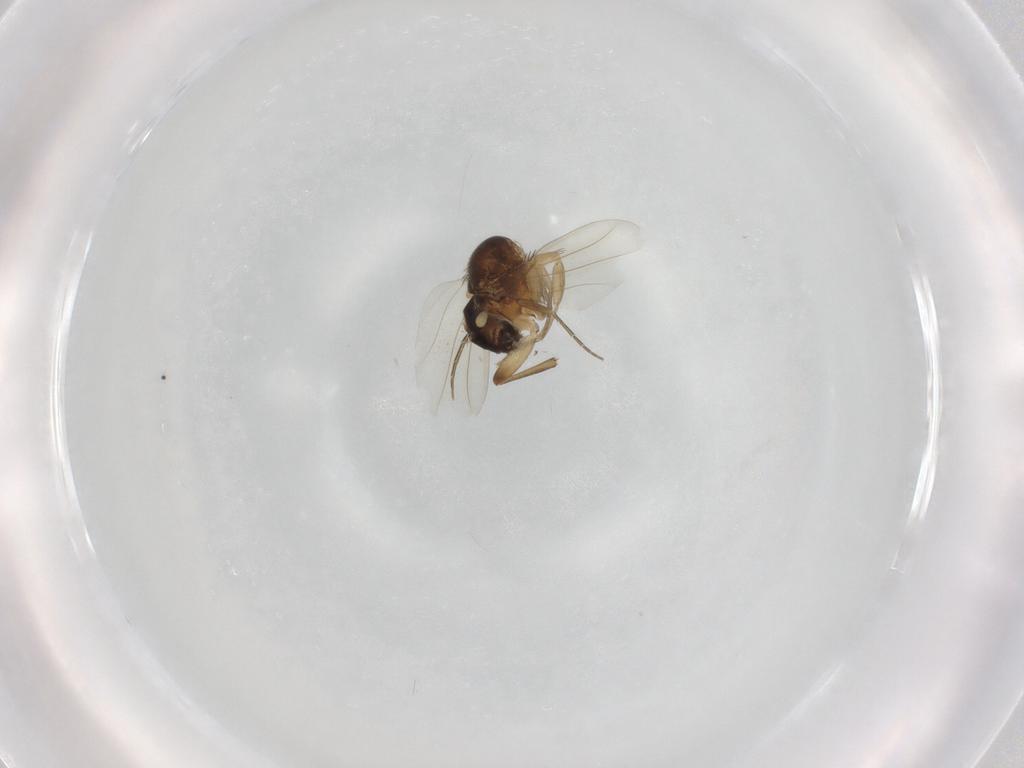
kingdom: Animalia
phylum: Arthropoda
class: Insecta
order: Diptera
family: Phoridae
